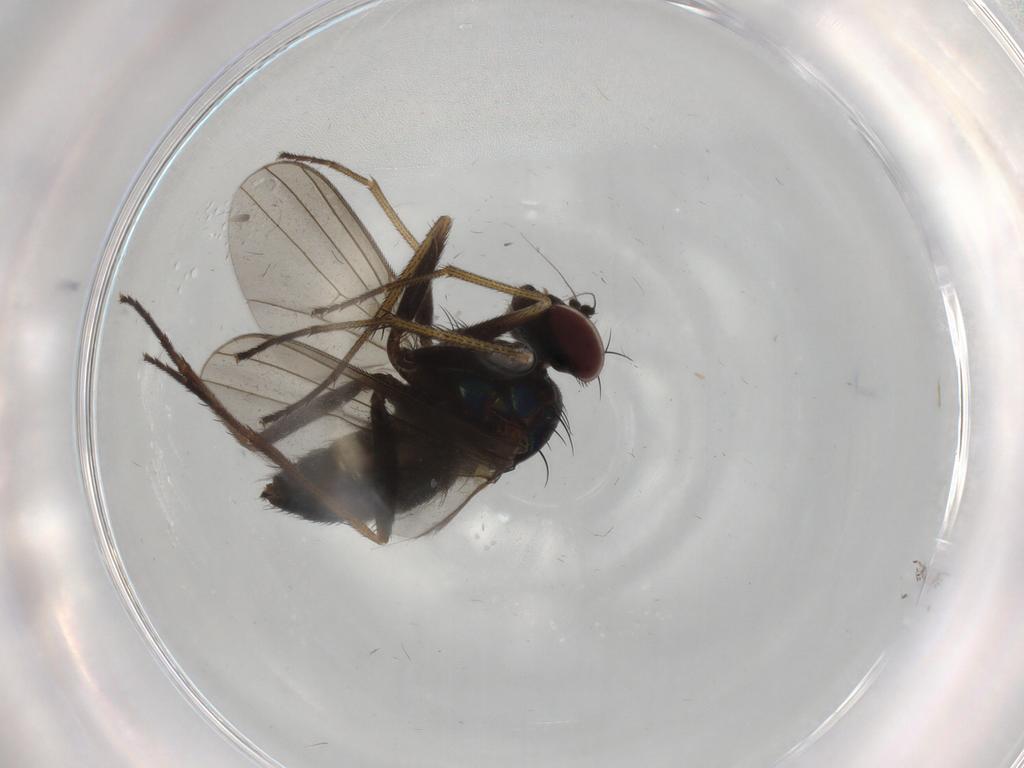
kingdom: Animalia
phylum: Arthropoda
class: Insecta
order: Diptera
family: Dolichopodidae
